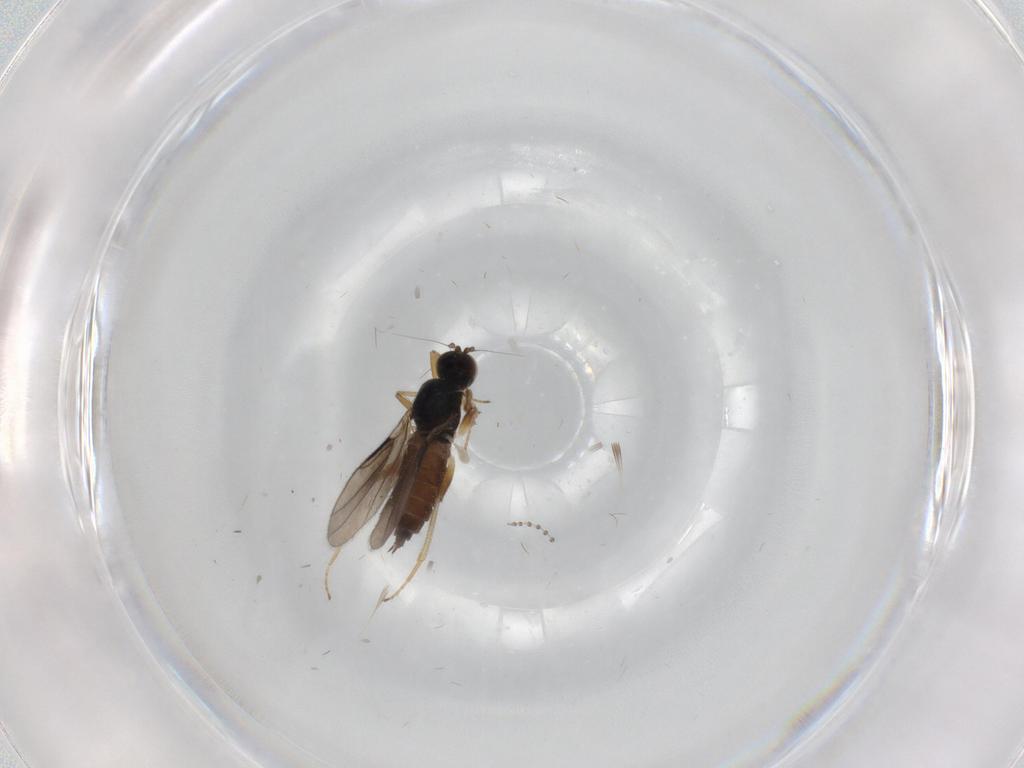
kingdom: Animalia
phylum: Arthropoda
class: Insecta
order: Diptera
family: Hybotidae
